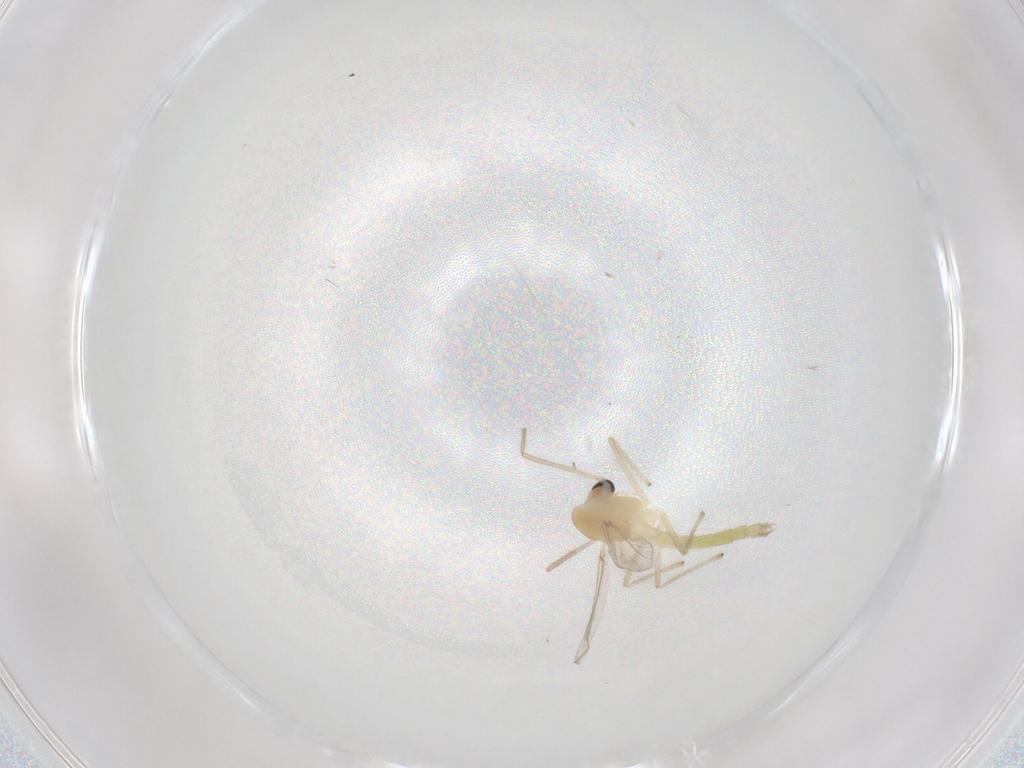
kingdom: Animalia
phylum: Arthropoda
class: Insecta
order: Diptera
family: Chironomidae
